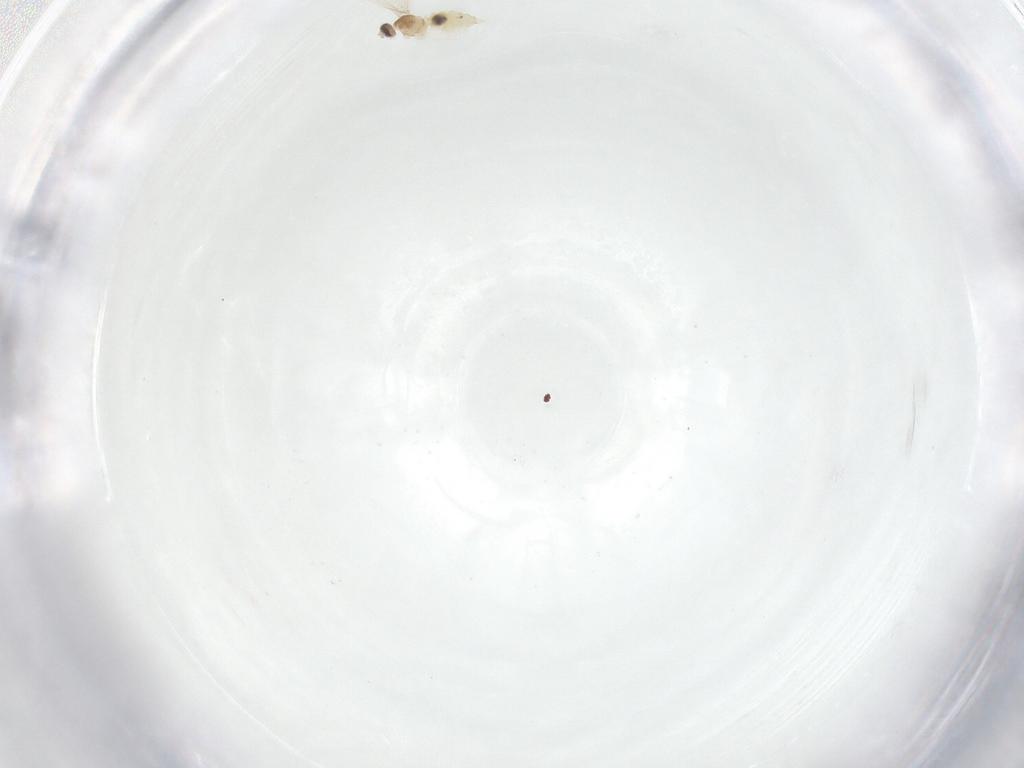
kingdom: Animalia
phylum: Arthropoda
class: Insecta
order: Diptera
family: Cecidomyiidae
